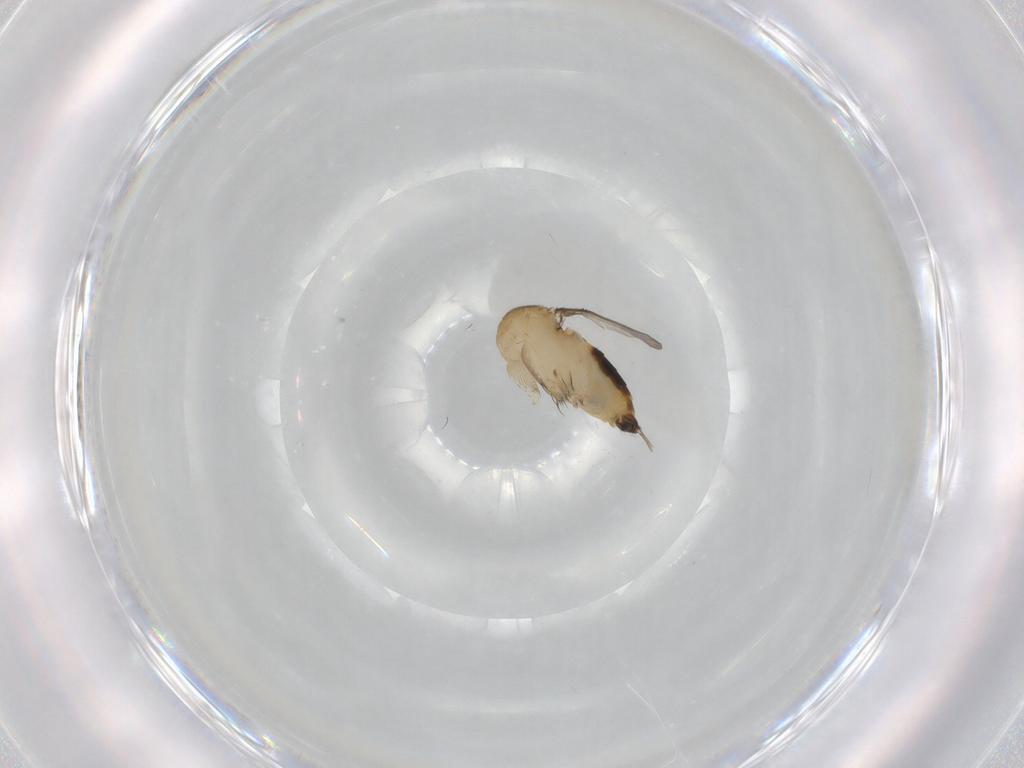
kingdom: Animalia
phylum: Arthropoda
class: Insecta
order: Diptera
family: Phoridae
